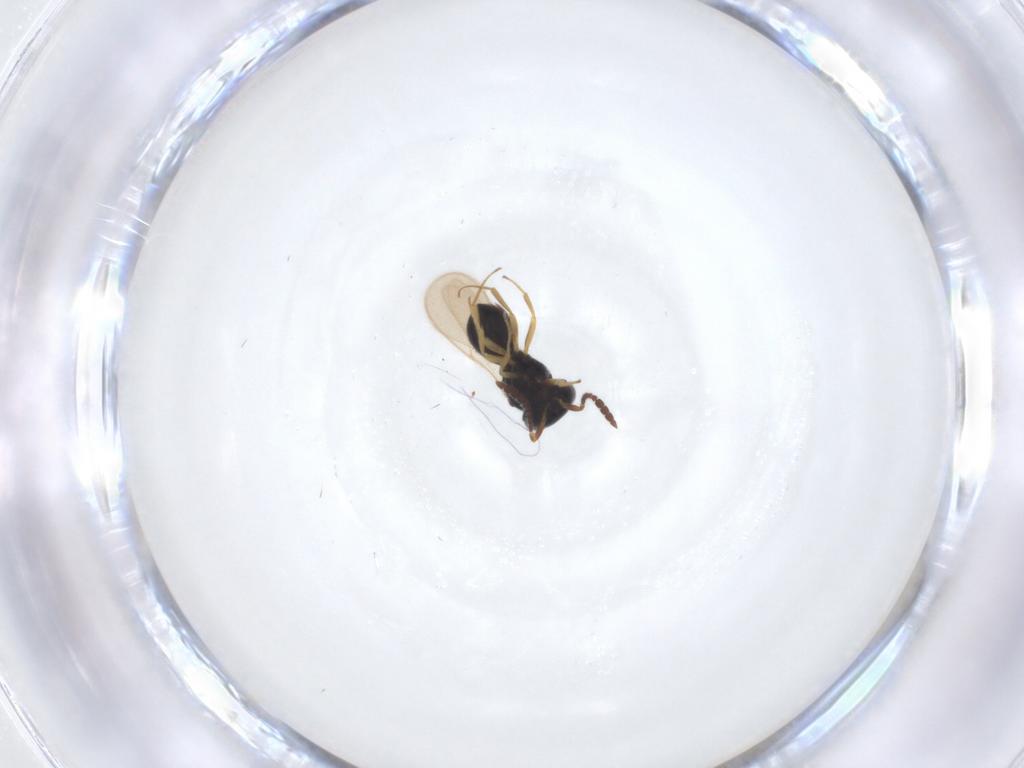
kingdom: Animalia
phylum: Arthropoda
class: Insecta
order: Hymenoptera
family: Scelionidae
